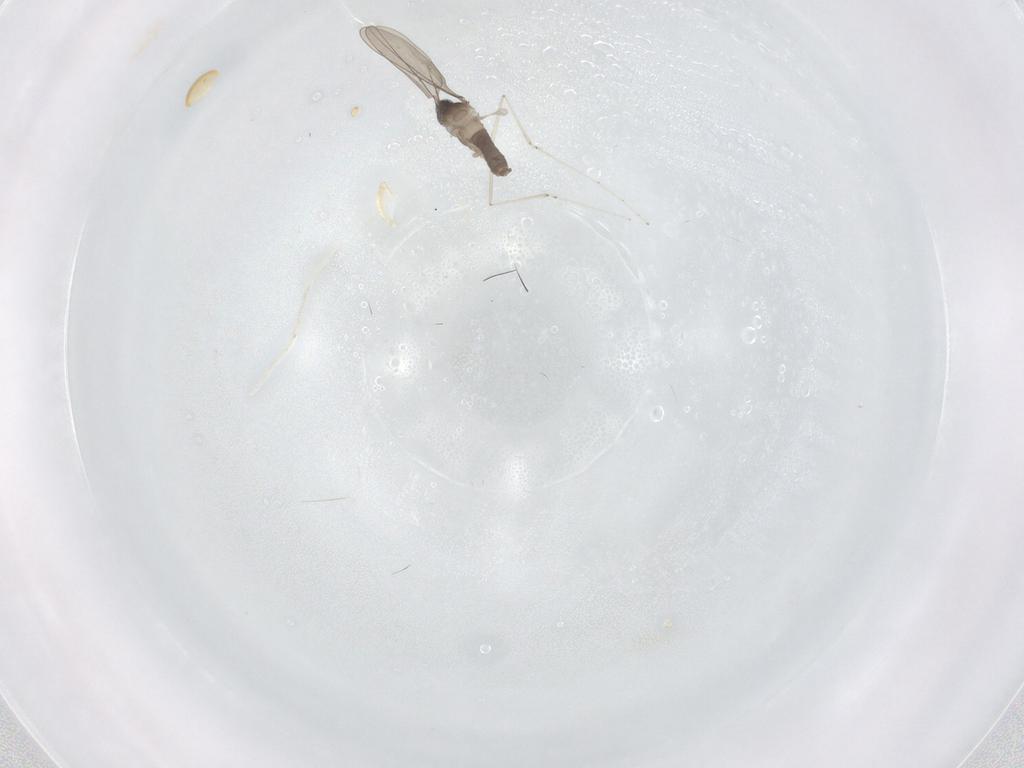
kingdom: Animalia
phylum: Arthropoda
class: Insecta
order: Diptera
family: Cecidomyiidae
